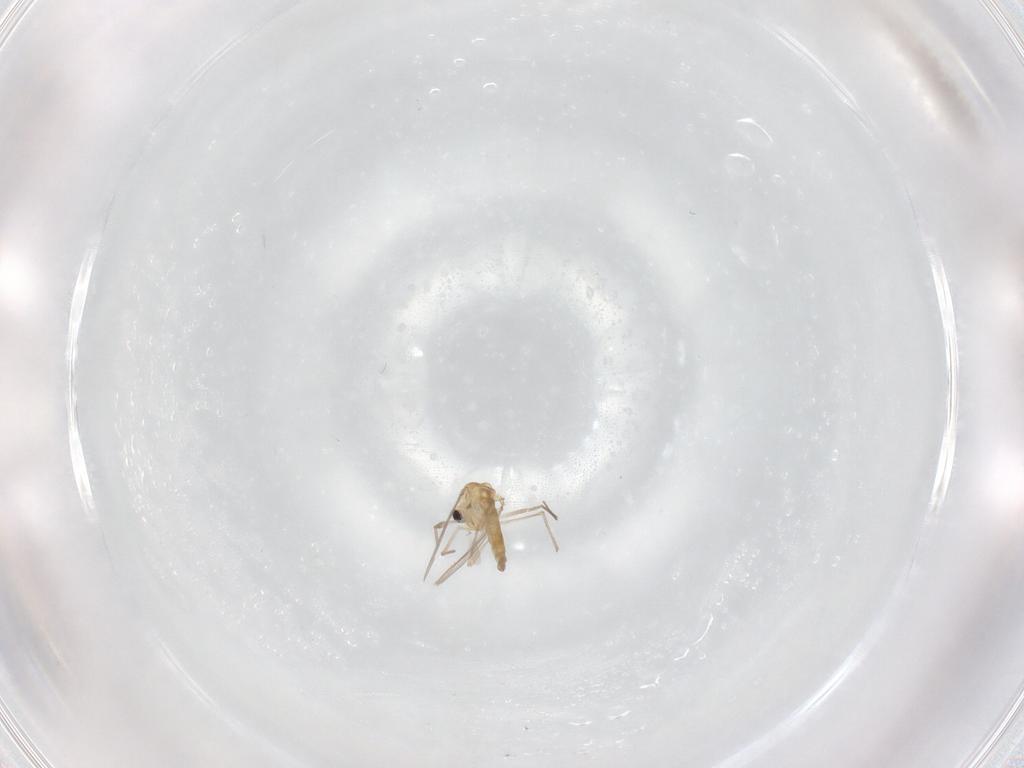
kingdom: Animalia
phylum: Arthropoda
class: Insecta
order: Diptera
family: Chironomidae
